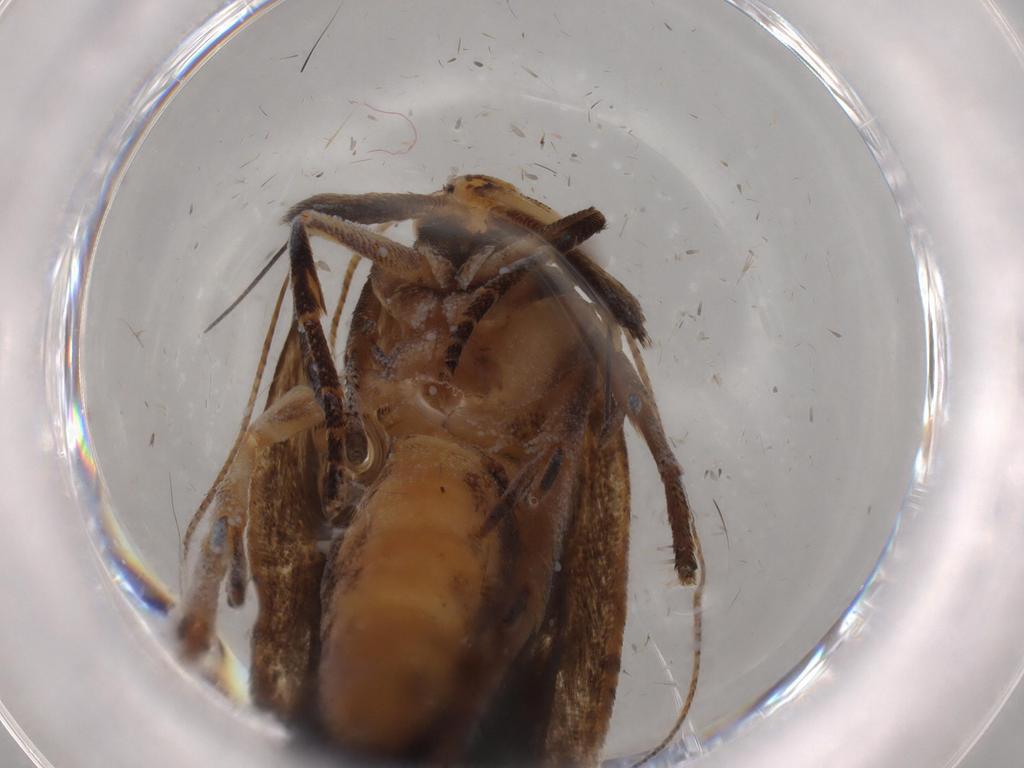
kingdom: Animalia
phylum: Arthropoda
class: Insecta
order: Lepidoptera
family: Gelechiidae
